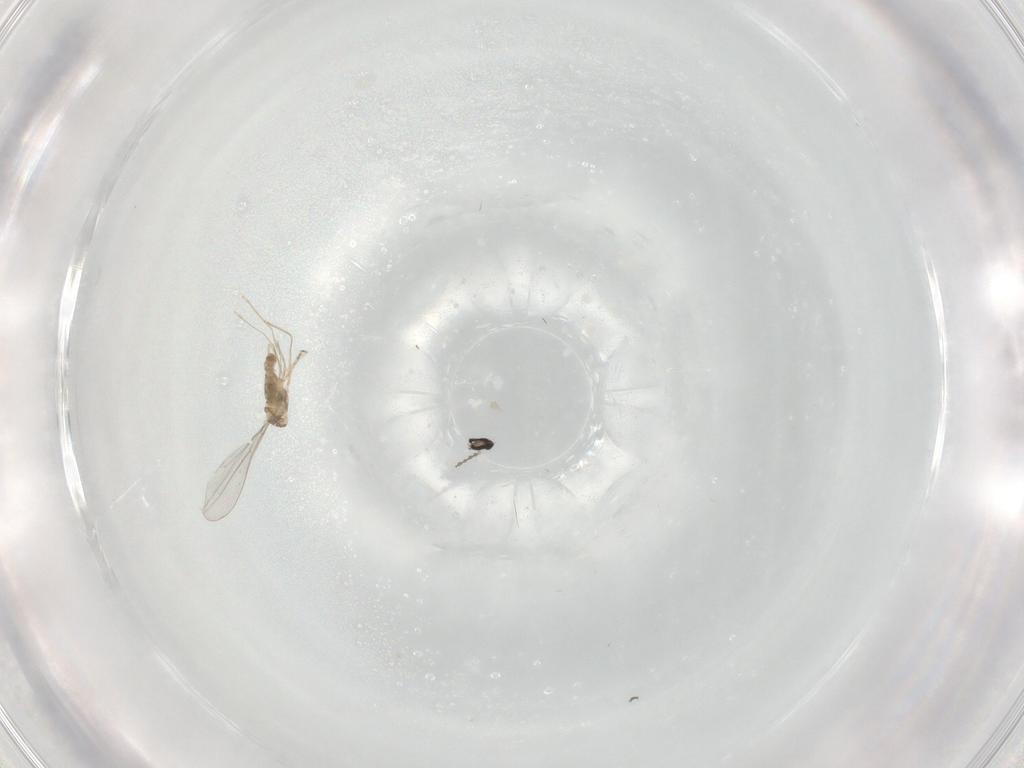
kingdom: Animalia
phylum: Arthropoda
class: Insecta
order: Diptera
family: Cecidomyiidae
